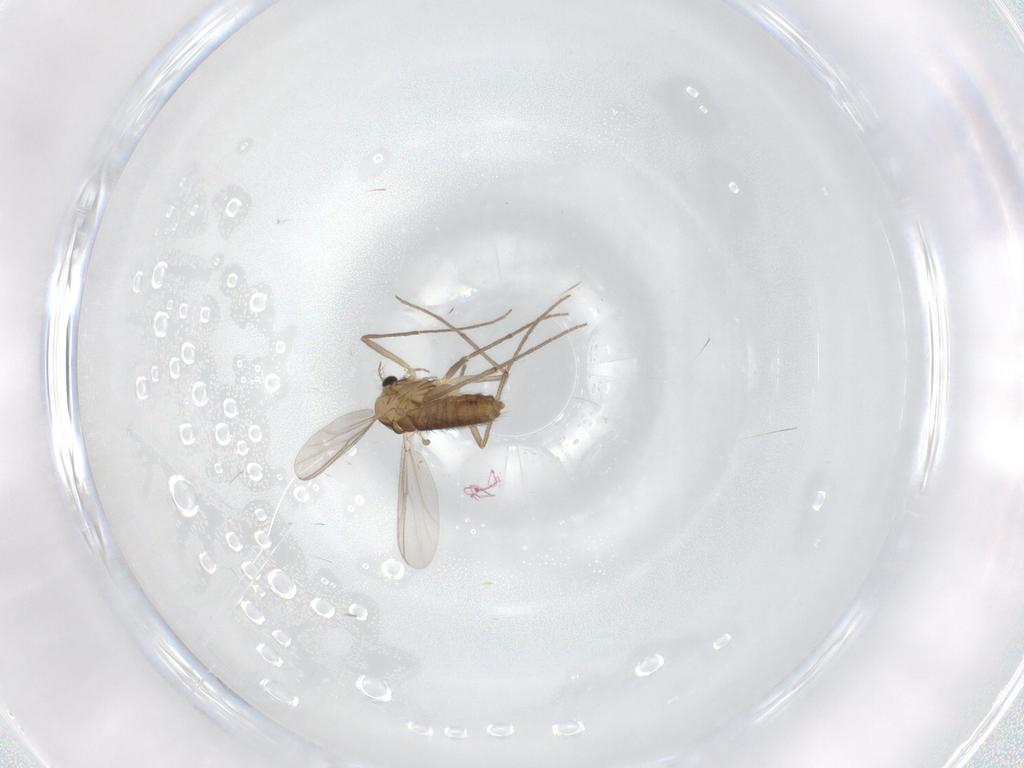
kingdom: Animalia
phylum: Arthropoda
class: Insecta
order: Diptera
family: Chironomidae
